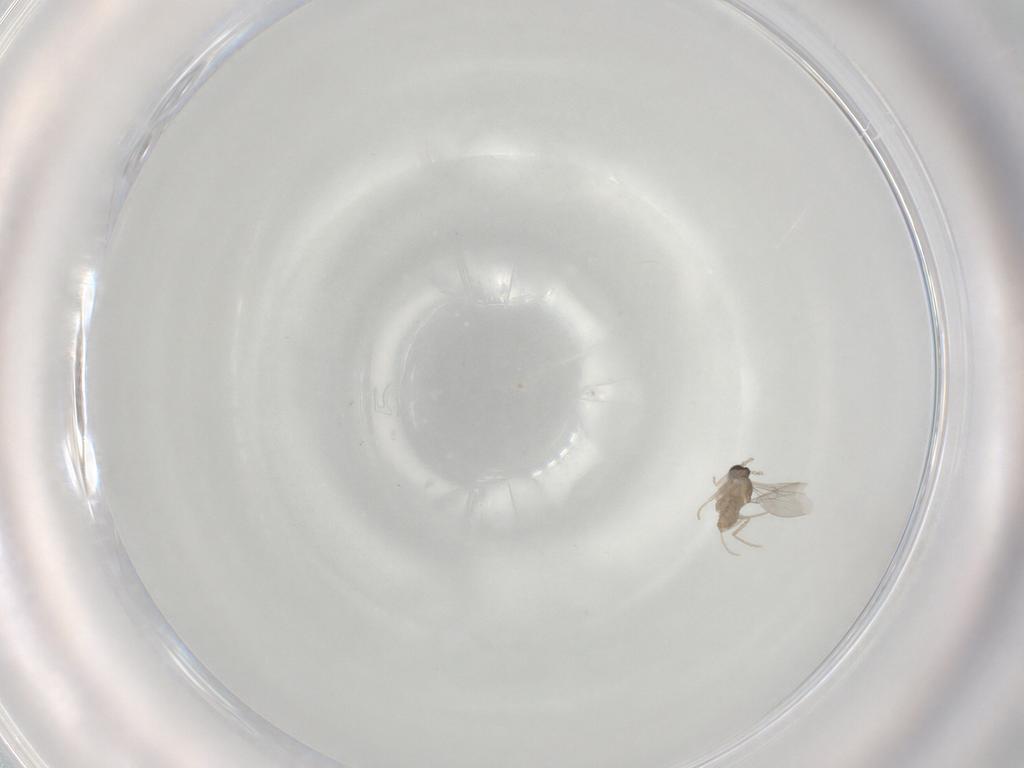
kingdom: Animalia
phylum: Arthropoda
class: Insecta
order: Diptera
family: Cecidomyiidae
